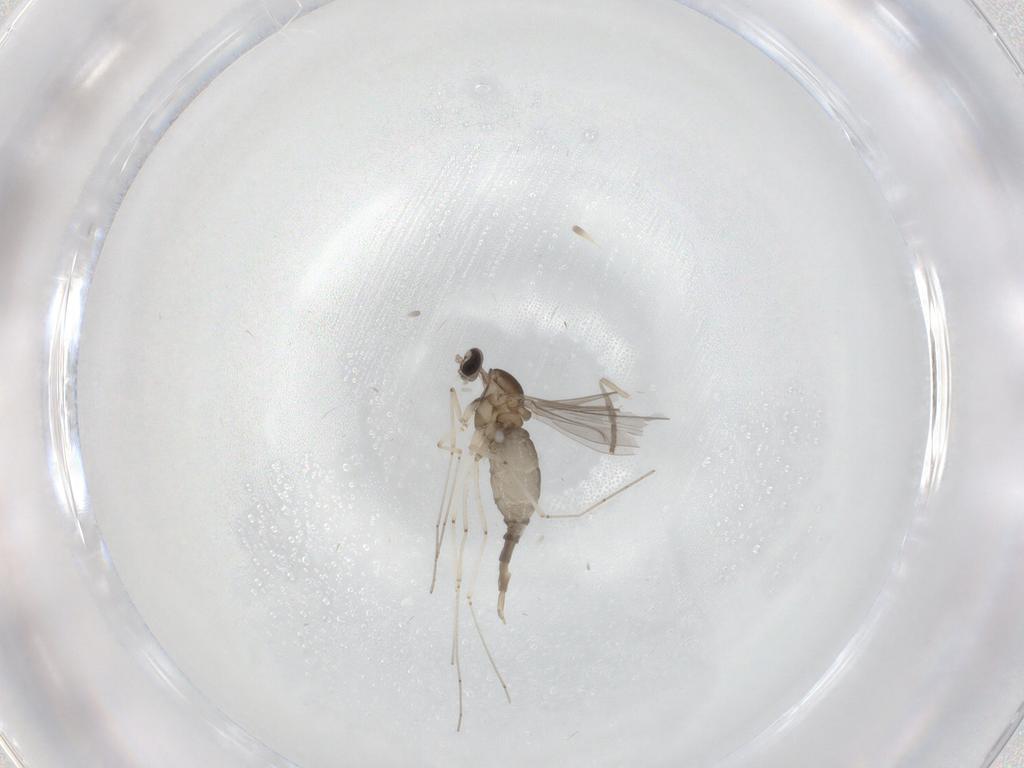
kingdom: Animalia
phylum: Arthropoda
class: Insecta
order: Diptera
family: Cecidomyiidae
